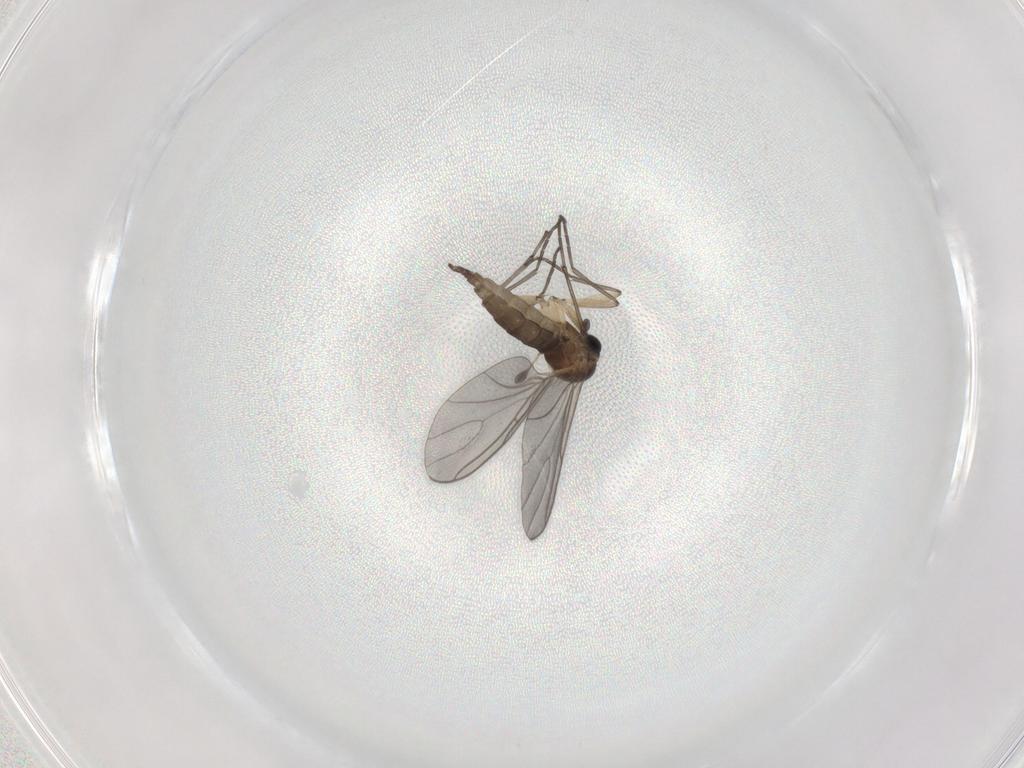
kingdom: Animalia
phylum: Arthropoda
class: Insecta
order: Diptera
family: Sciaridae
